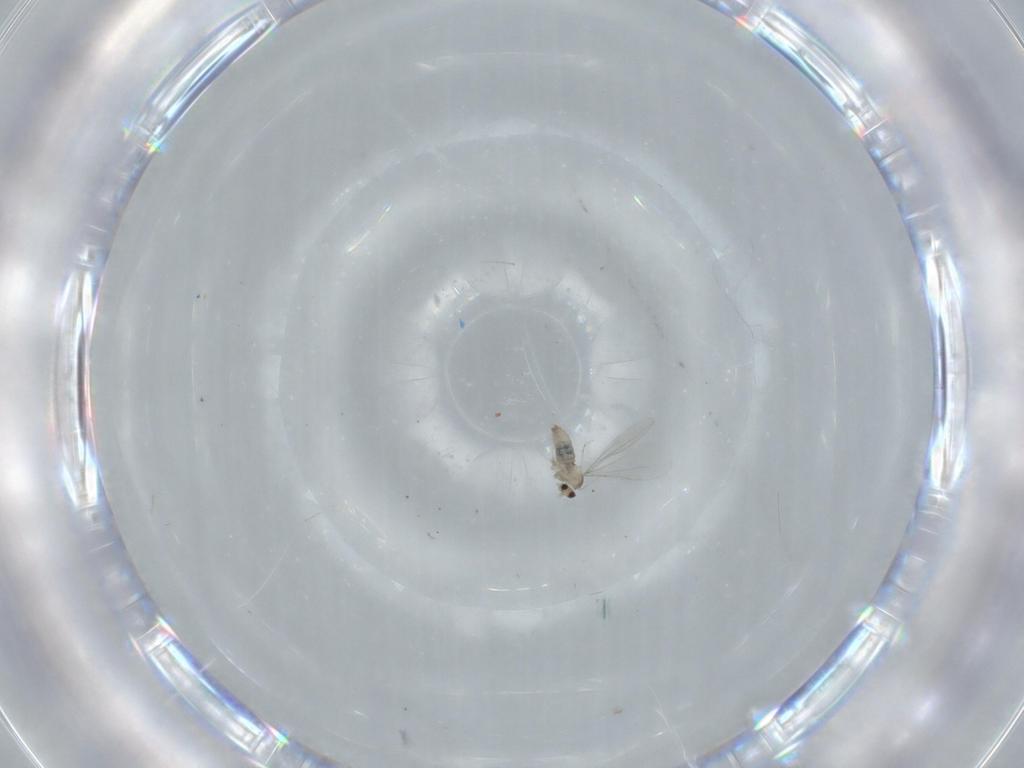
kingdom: Animalia
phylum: Arthropoda
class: Insecta
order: Diptera
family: Cecidomyiidae
